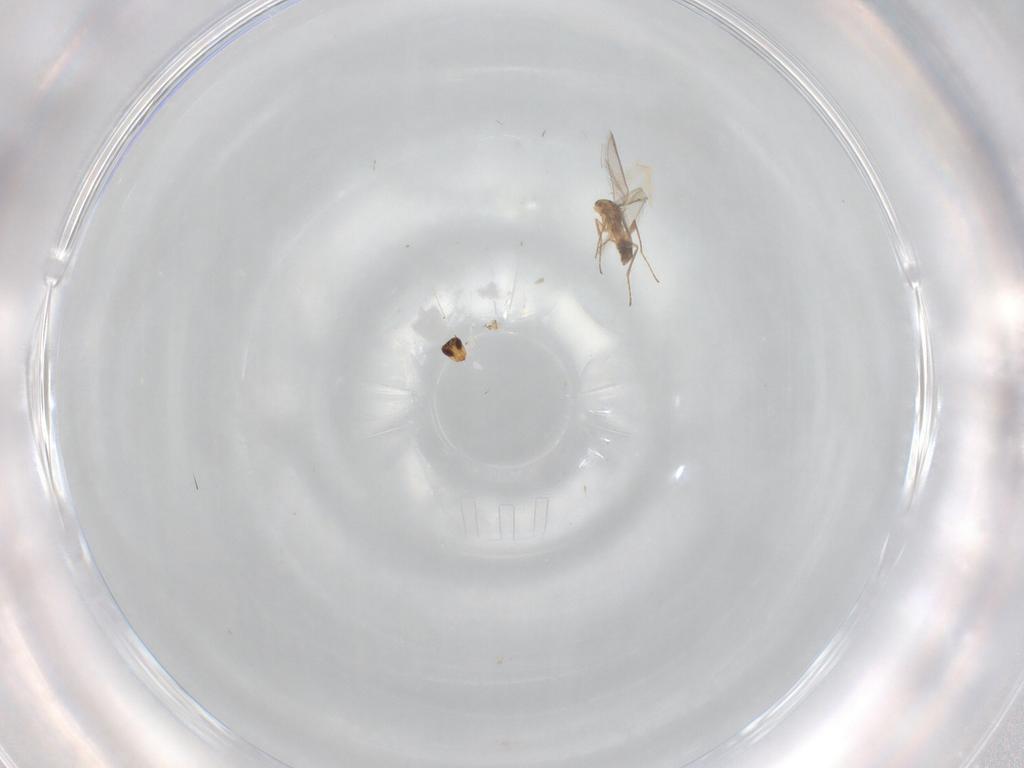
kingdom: Animalia
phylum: Arthropoda
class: Insecta
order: Diptera
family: Glossinidae
